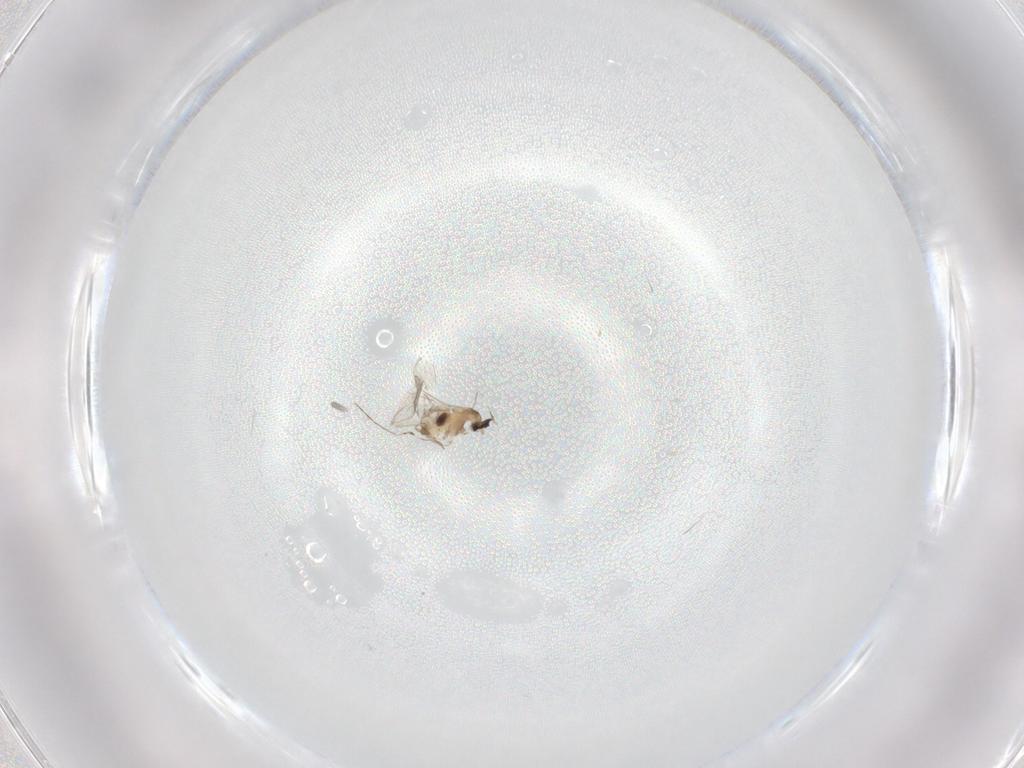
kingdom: Animalia
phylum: Arthropoda
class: Insecta
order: Diptera
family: Cecidomyiidae
